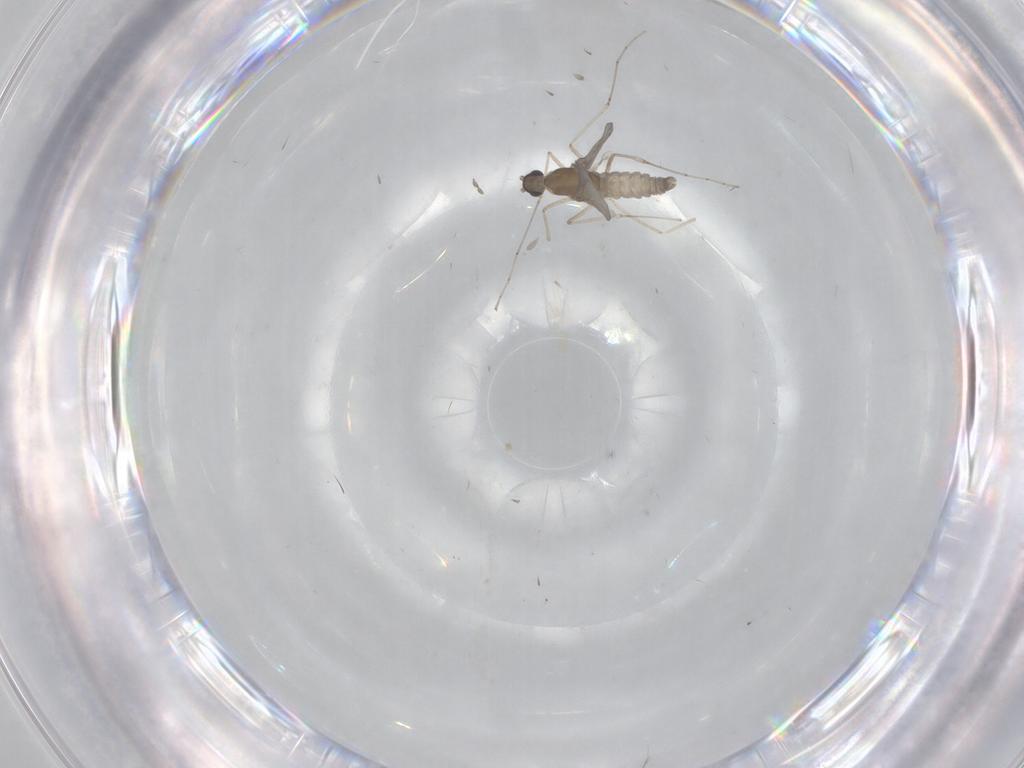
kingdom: Animalia
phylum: Arthropoda
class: Insecta
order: Diptera
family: Cecidomyiidae
